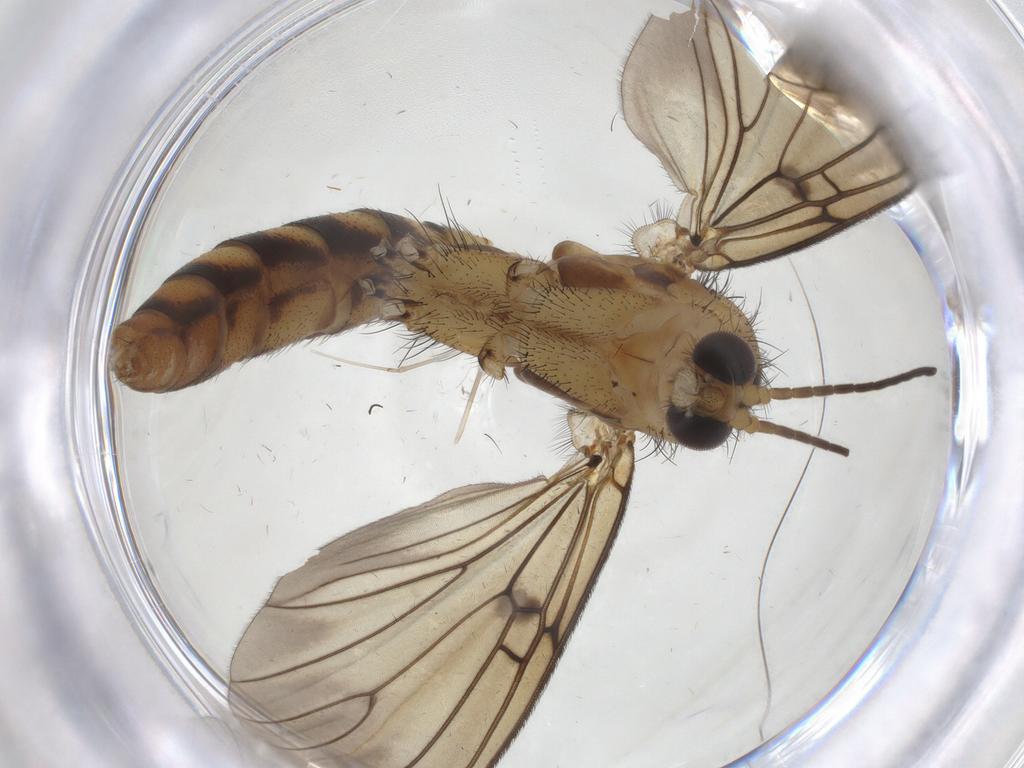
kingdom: Animalia
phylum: Arthropoda
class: Insecta
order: Diptera
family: Mycetophilidae
